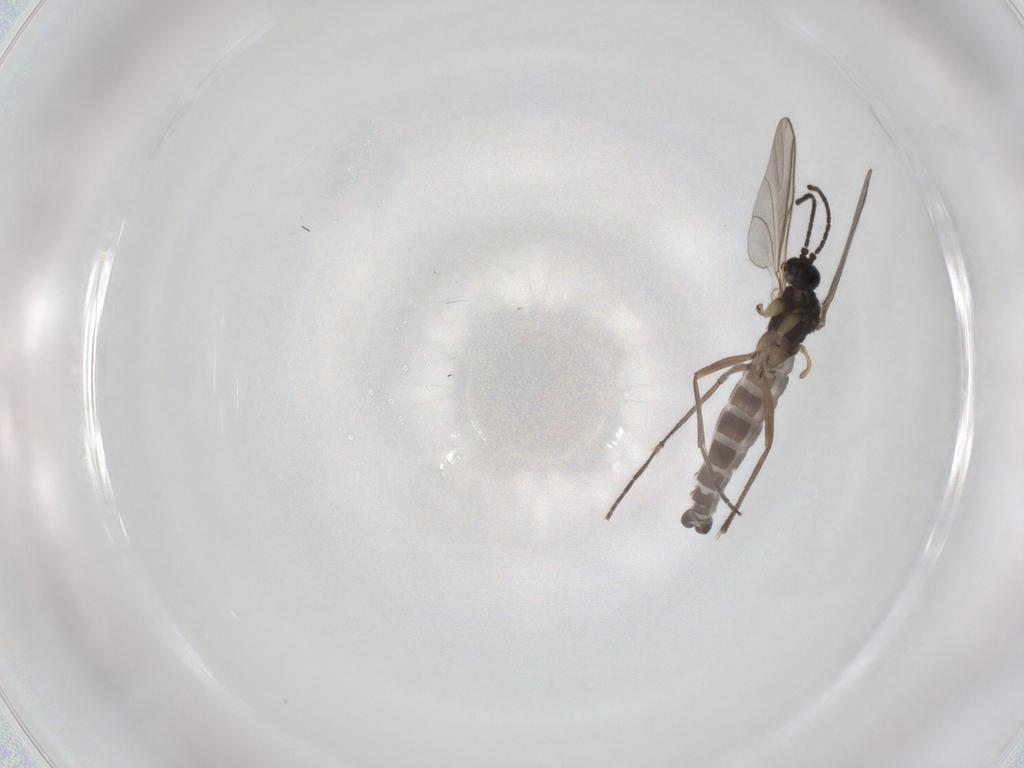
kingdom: Animalia
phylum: Arthropoda
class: Insecta
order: Diptera
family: Sciaridae
